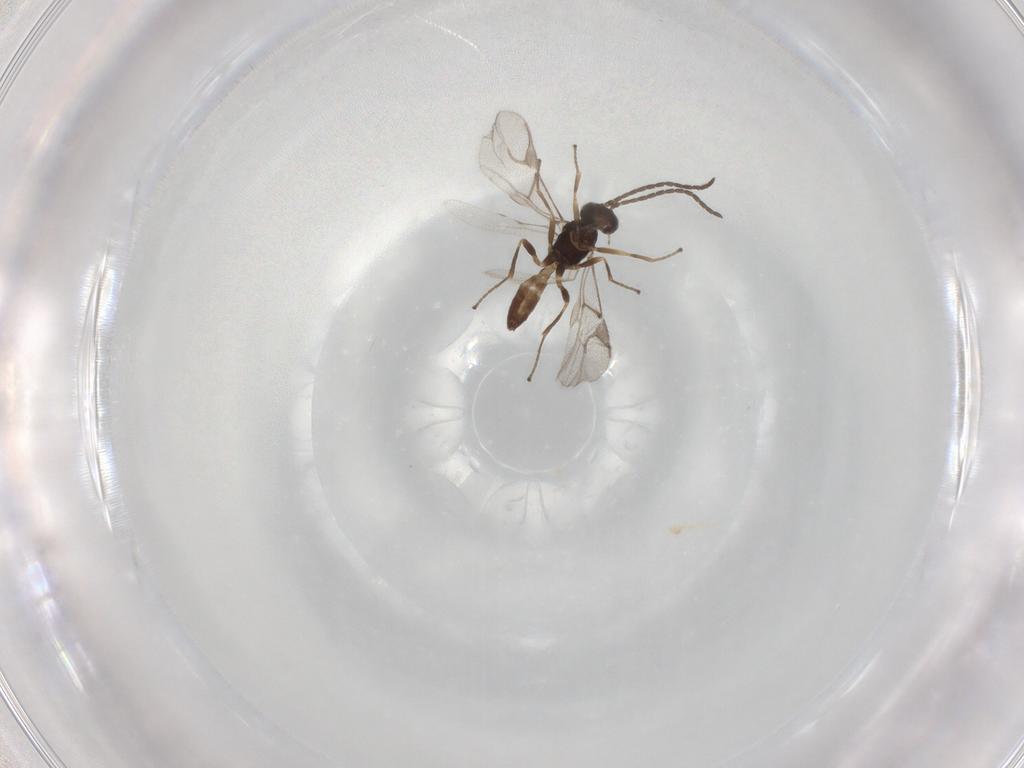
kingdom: Animalia
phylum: Arthropoda
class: Insecta
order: Hymenoptera
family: Braconidae
